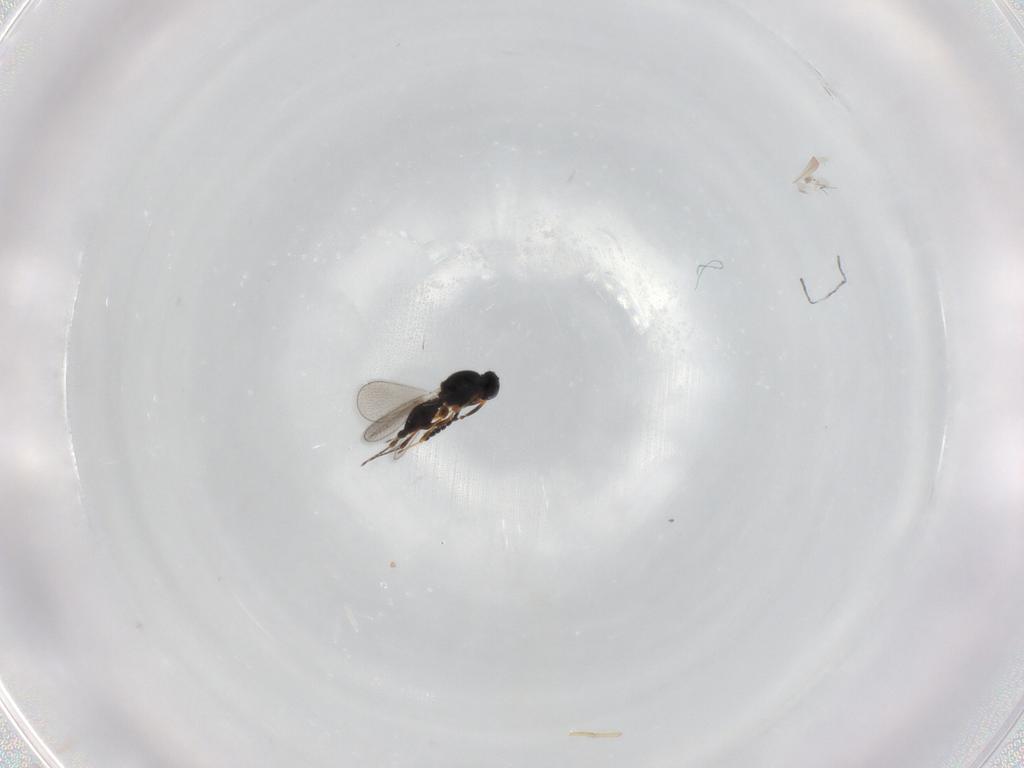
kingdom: Animalia
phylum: Arthropoda
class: Insecta
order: Hymenoptera
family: Platygastridae
